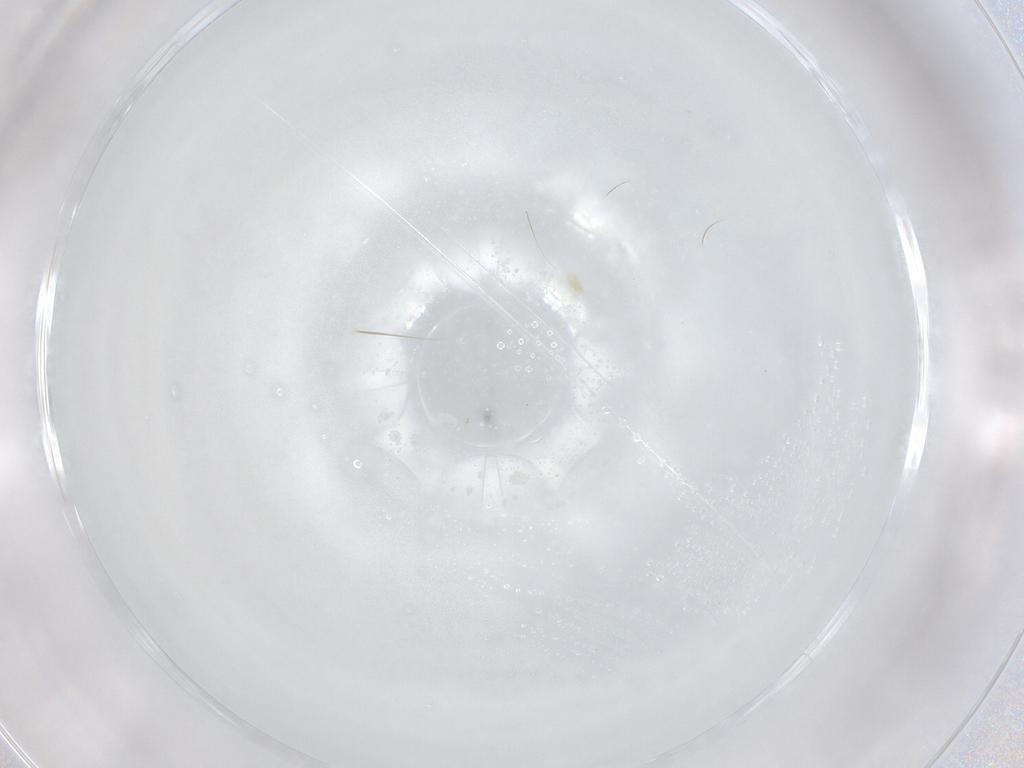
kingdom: Animalia
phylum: Arthropoda
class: Arachnida
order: Trombidiformes
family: Eupodidae
